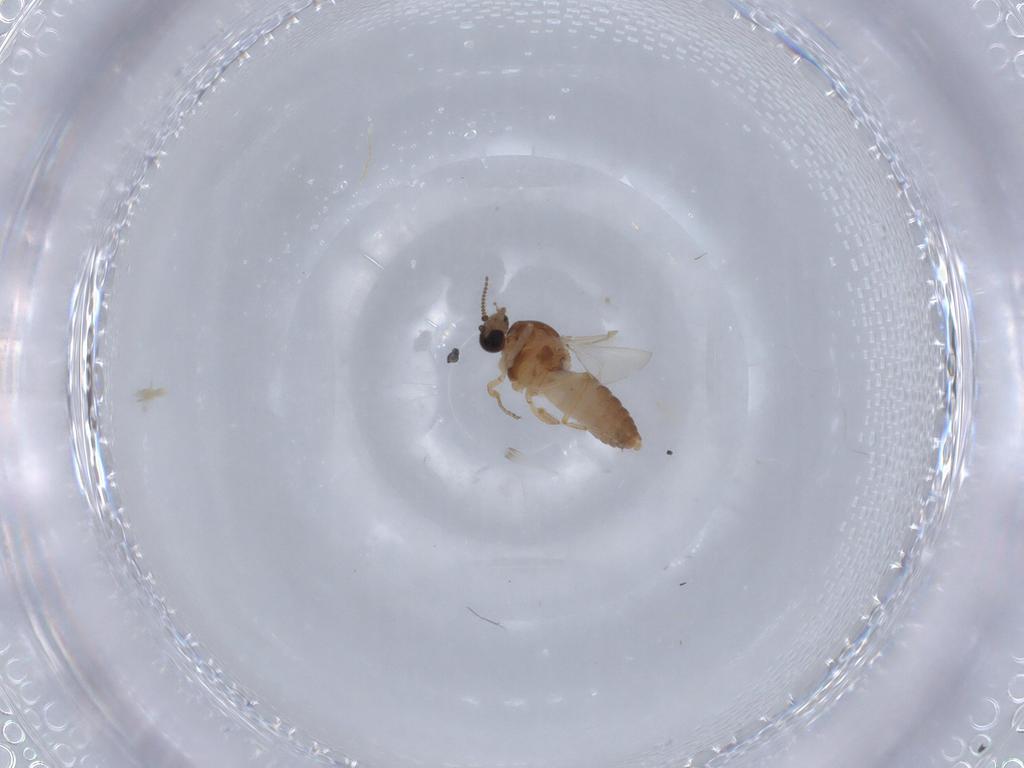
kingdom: Animalia
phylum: Arthropoda
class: Insecta
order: Diptera
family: Ceratopogonidae
